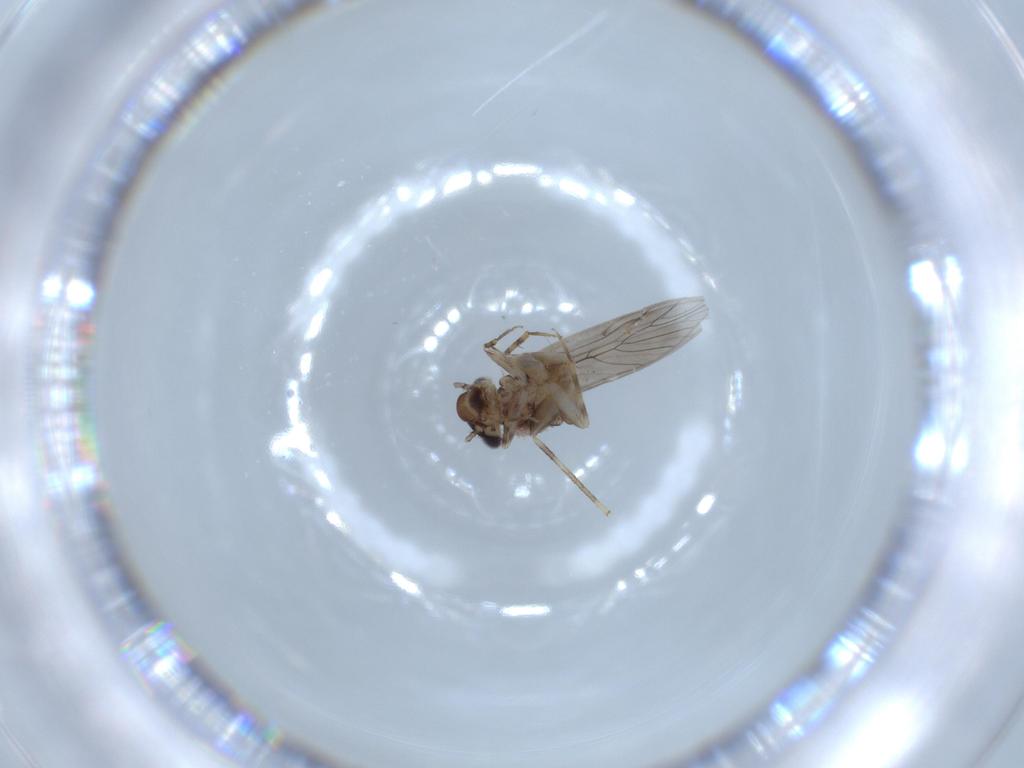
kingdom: Animalia
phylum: Arthropoda
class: Insecta
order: Psocodea
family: Lepidopsocidae
